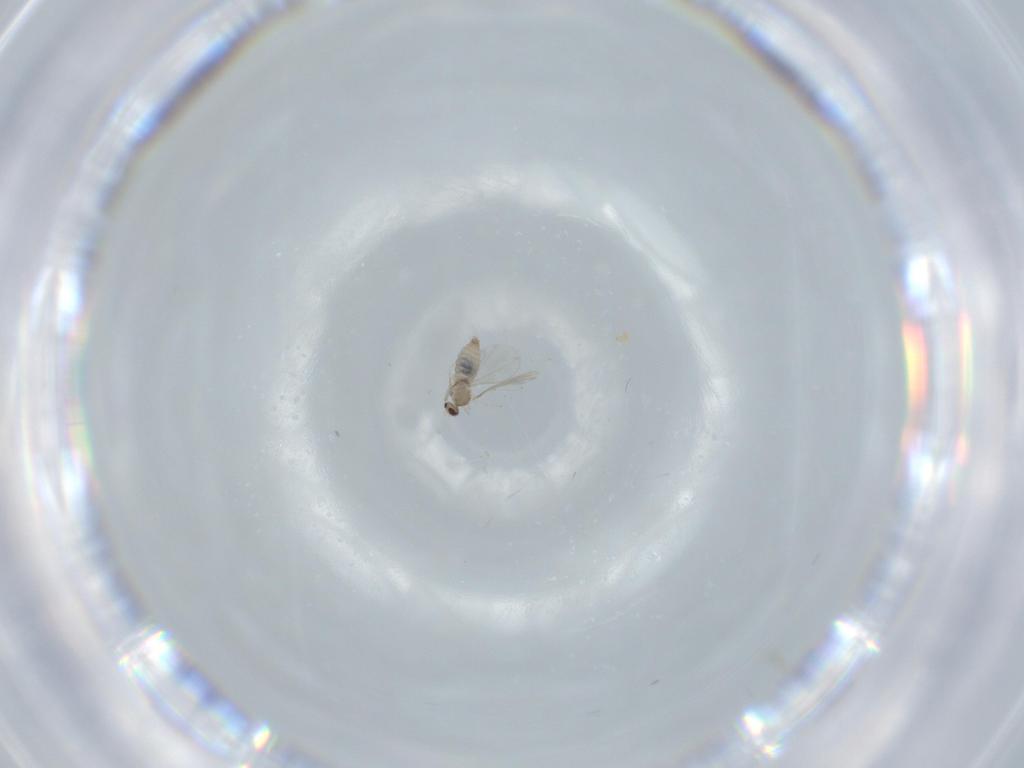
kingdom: Animalia
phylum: Arthropoda
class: Insecta
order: Diptera
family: Cecidomyiidae
